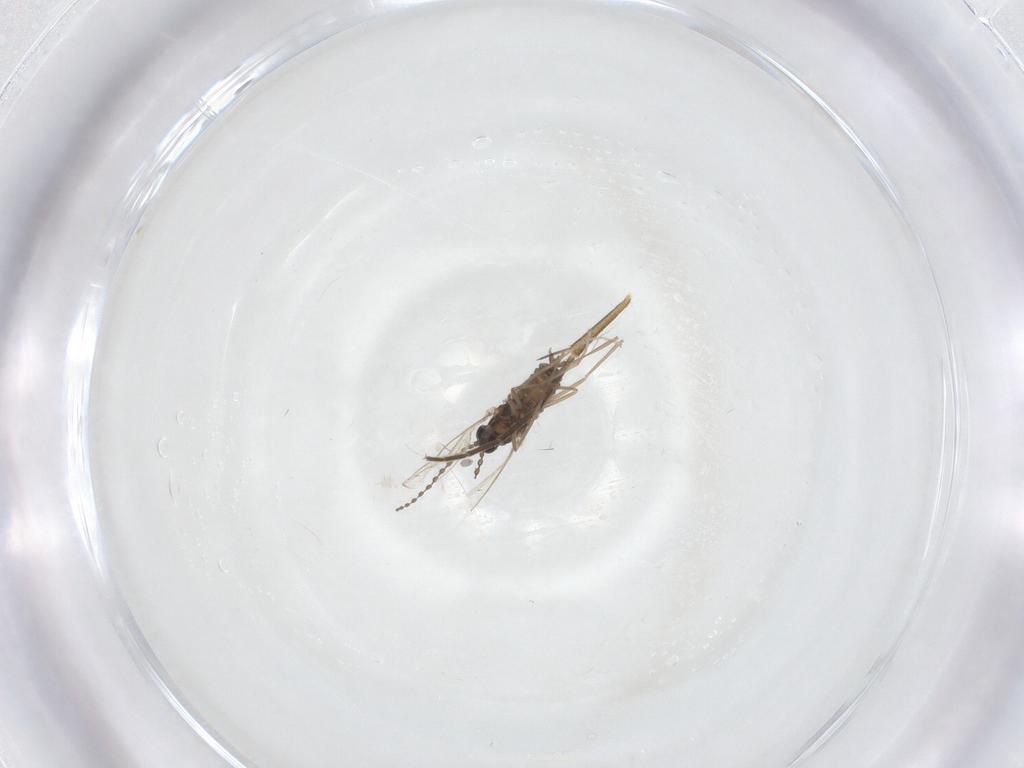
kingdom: Animalia
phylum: Arthropoda
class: Insecta
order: Diptera
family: Cecidomyiidae
